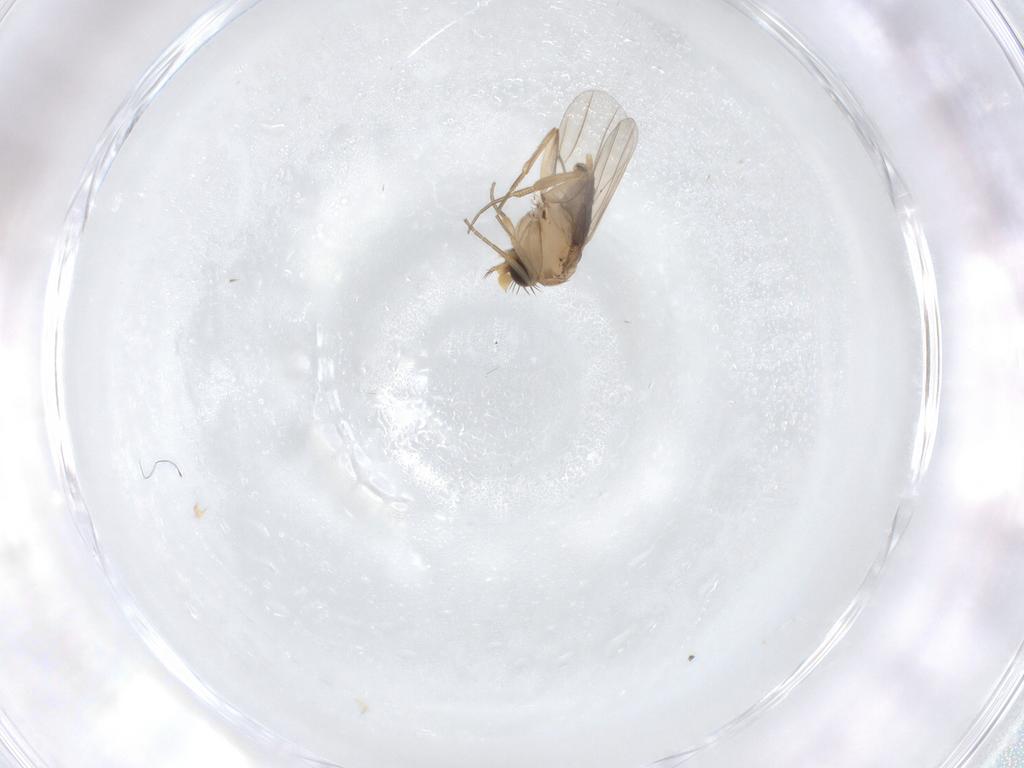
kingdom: Animalia
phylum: Arthropoda
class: Insecta
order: Diptera
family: Phoridae
